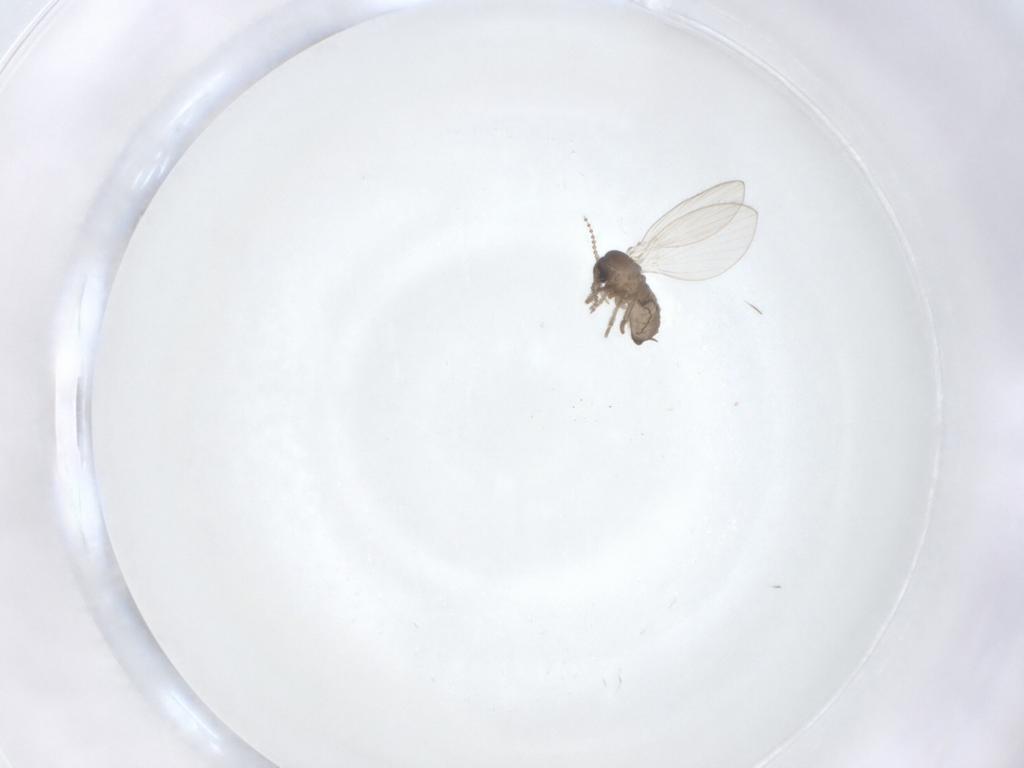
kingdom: Animalia
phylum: Arthropoda
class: Insecta
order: Diptera
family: Psychodidae
